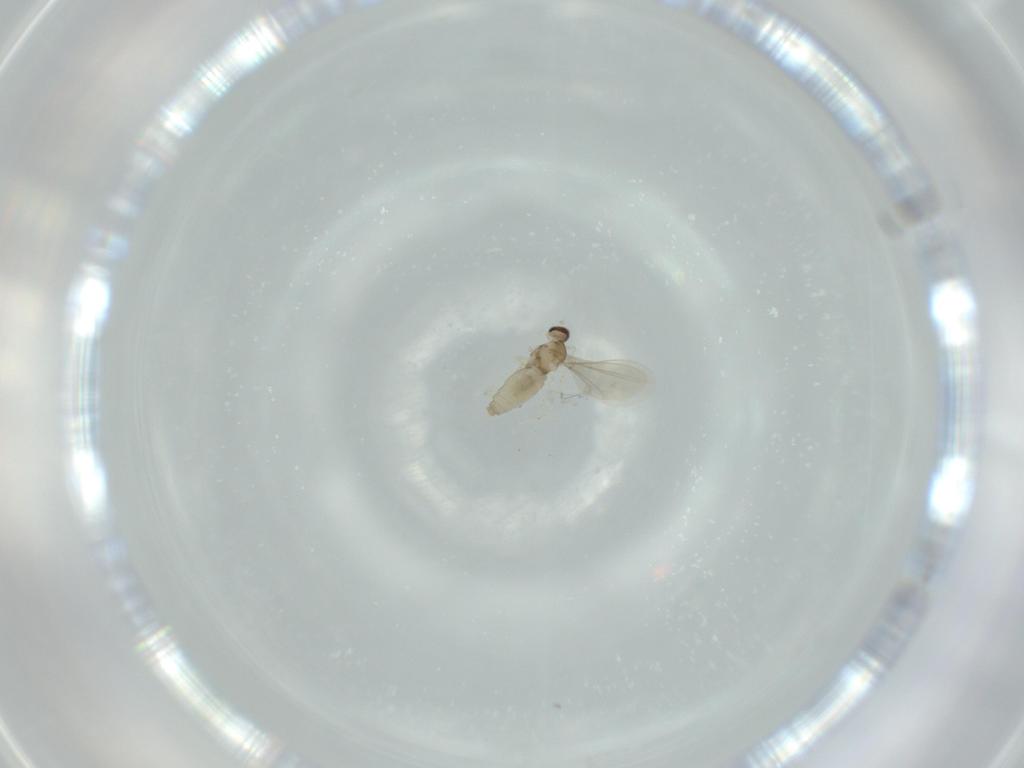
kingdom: Animalia
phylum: Arthropoda
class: Insecta
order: Diptera
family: Cecidomyiidae
